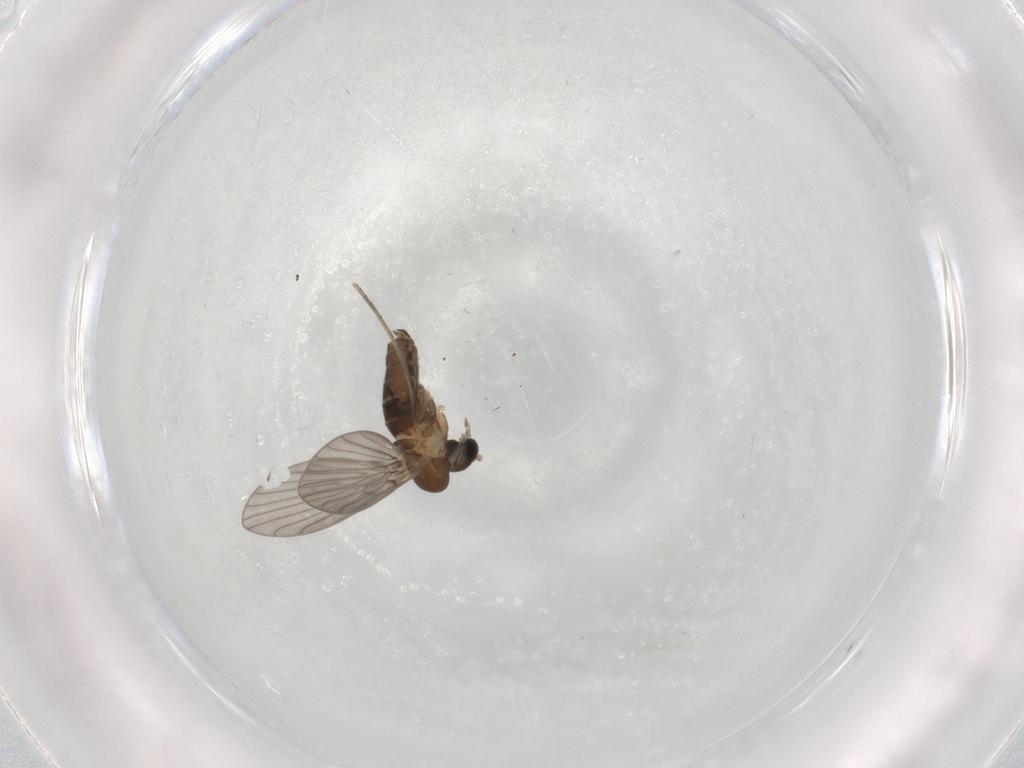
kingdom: Animalia
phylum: Arthropoda
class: Insecta
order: Diptera
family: Psychodidae
